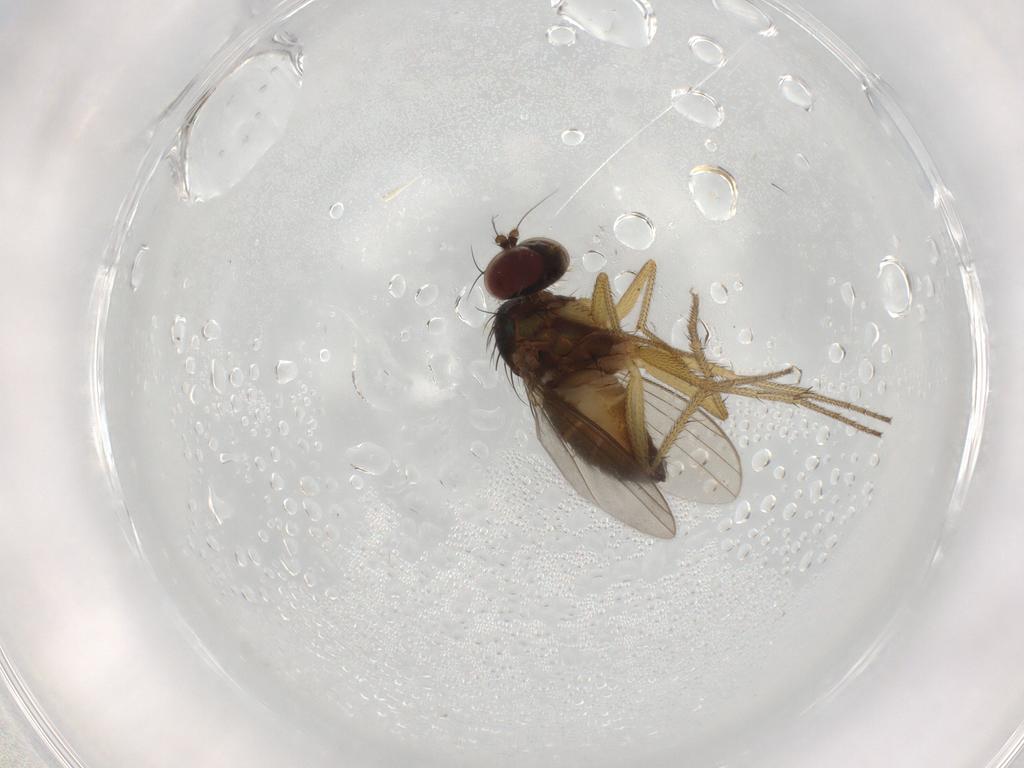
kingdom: Animalia
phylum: Arthropoda
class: Insecta
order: Diptera
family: Dolichopodidae
